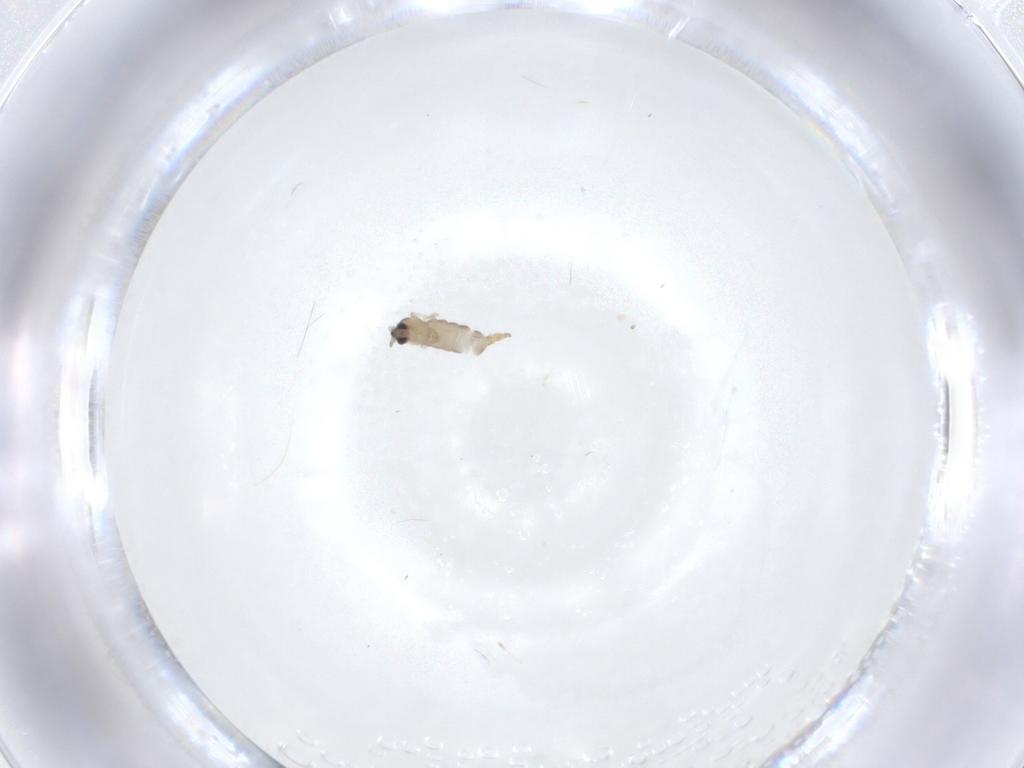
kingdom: Animalia
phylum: Arthropoda
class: Insecta
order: Diptera
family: Cecidomyiidae
